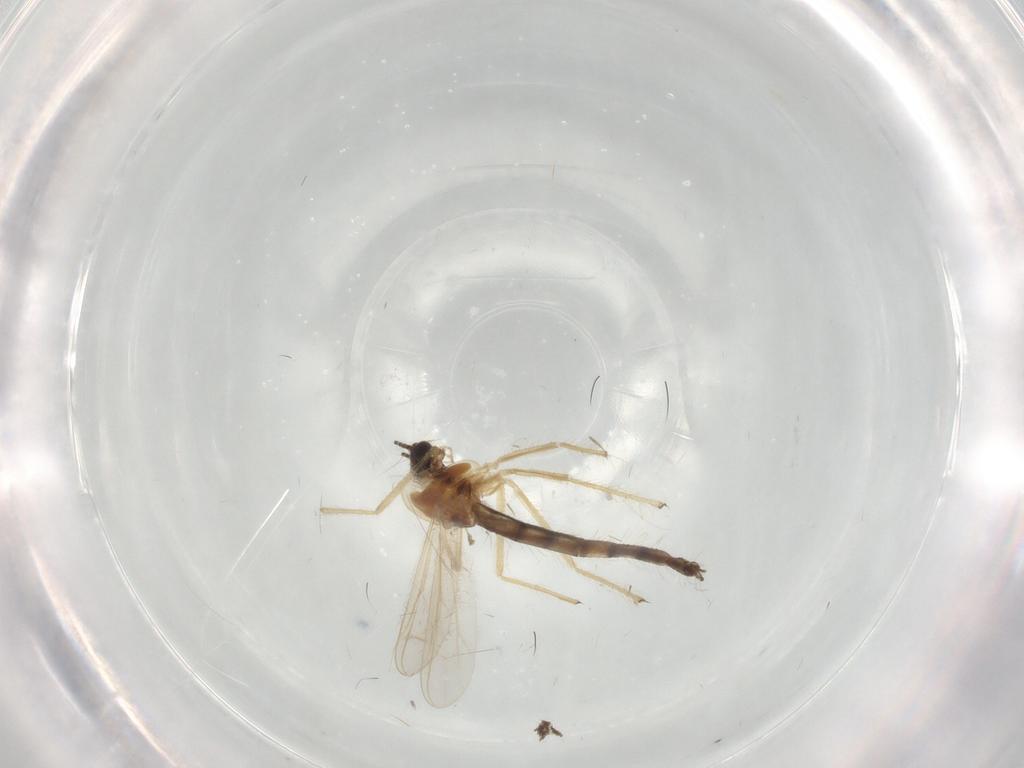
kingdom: Animalia
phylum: Arthropoda
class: Insecta
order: Diptera
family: Chironomidae
